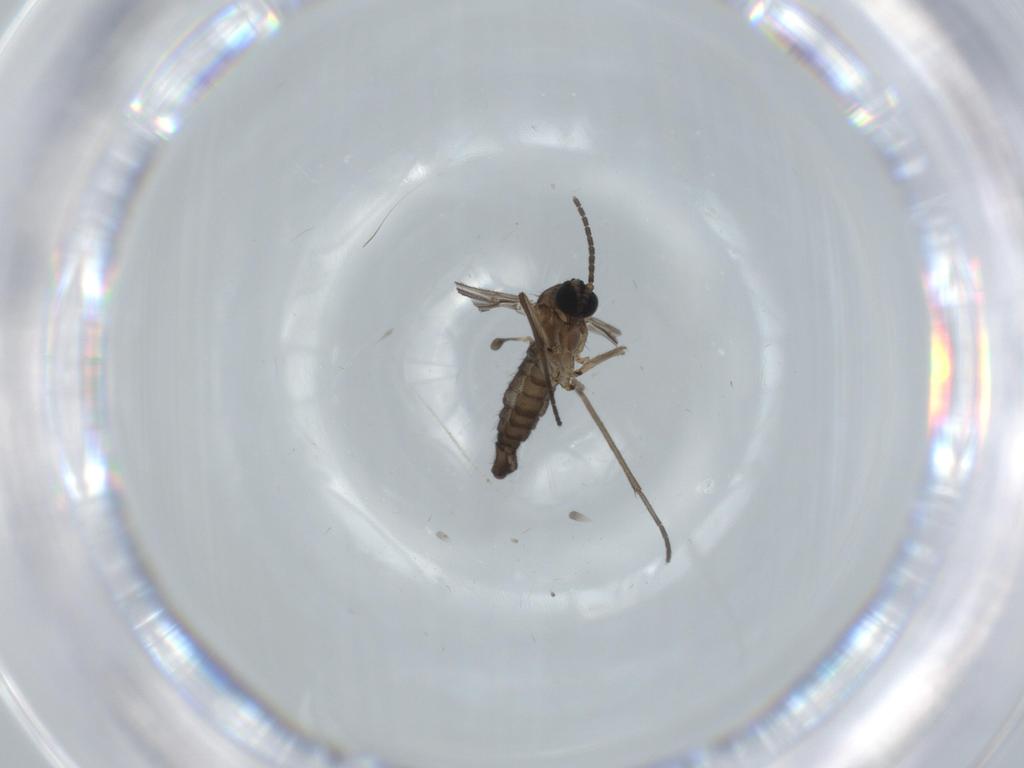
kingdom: Animalia
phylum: Arthropoda
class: Insecta
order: Diptera
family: Sciaridae
